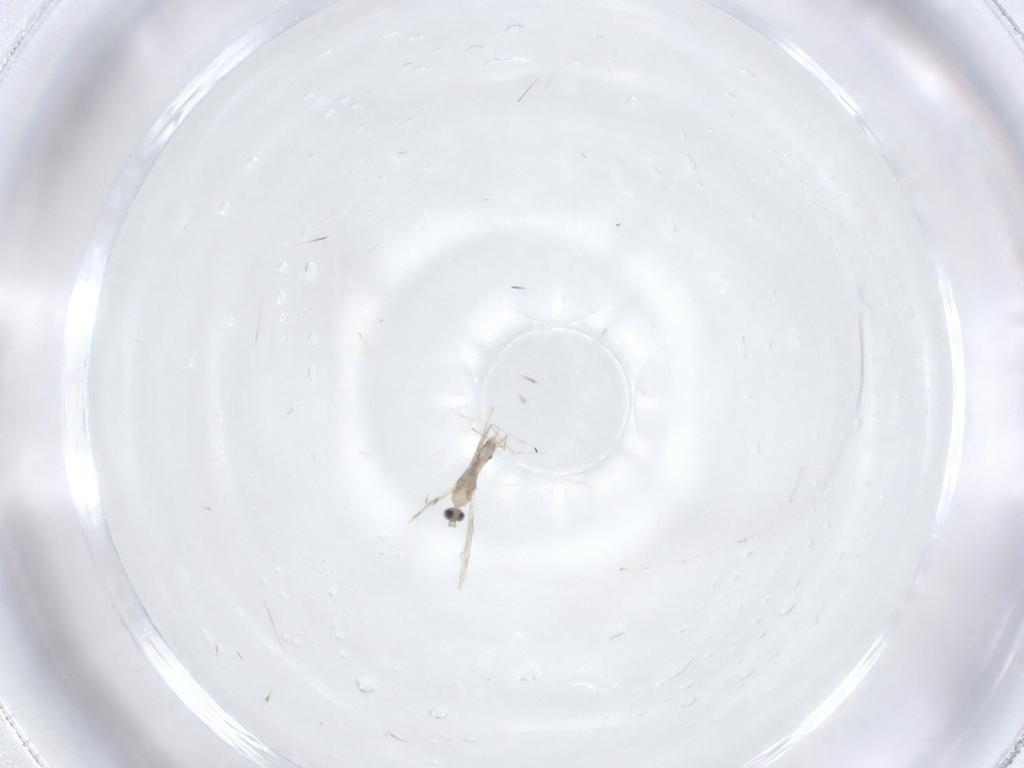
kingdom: Animalia
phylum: Arthropoda
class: Insecta
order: Diptera
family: Cecidomyiidae
